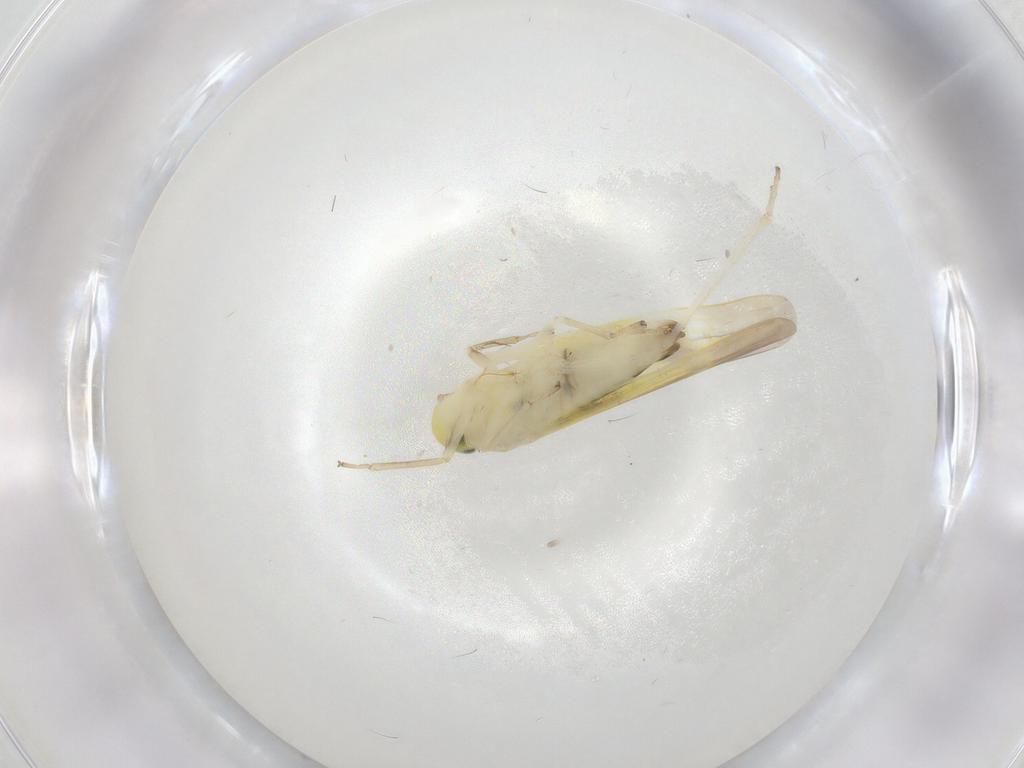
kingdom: Animalia
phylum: Arthropoda
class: Insecta
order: Hemiptera
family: Cicadellidae
